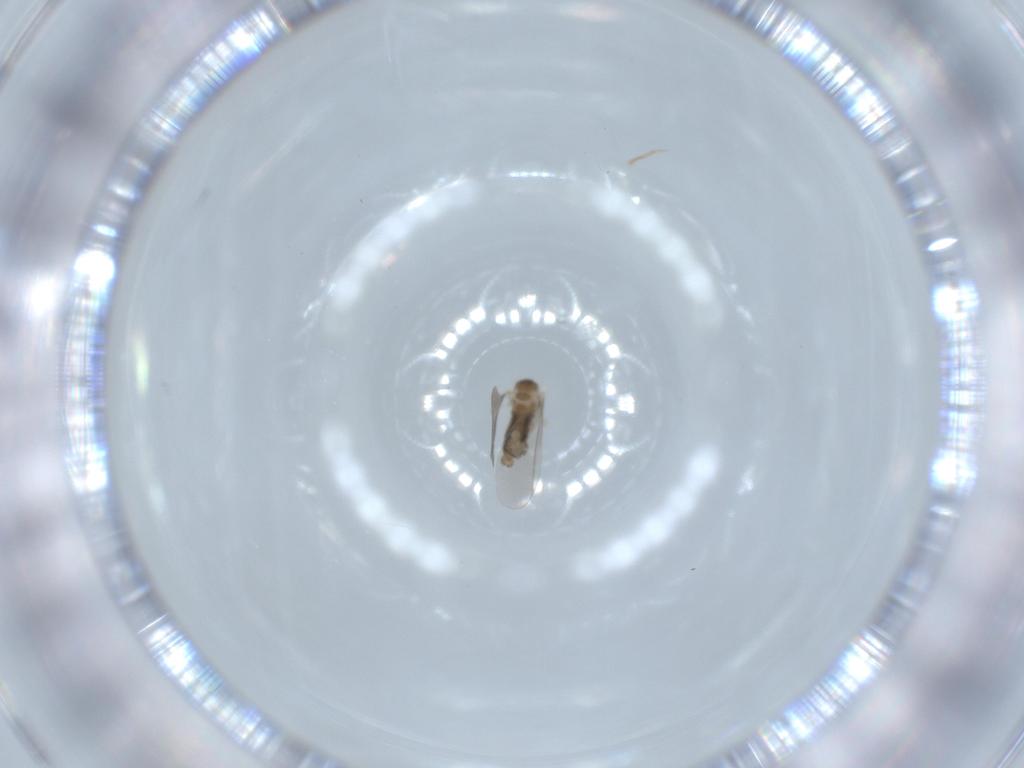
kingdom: Animalia
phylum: Arthropoda
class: Insecta
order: Diptera
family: Cecidomyiidae
